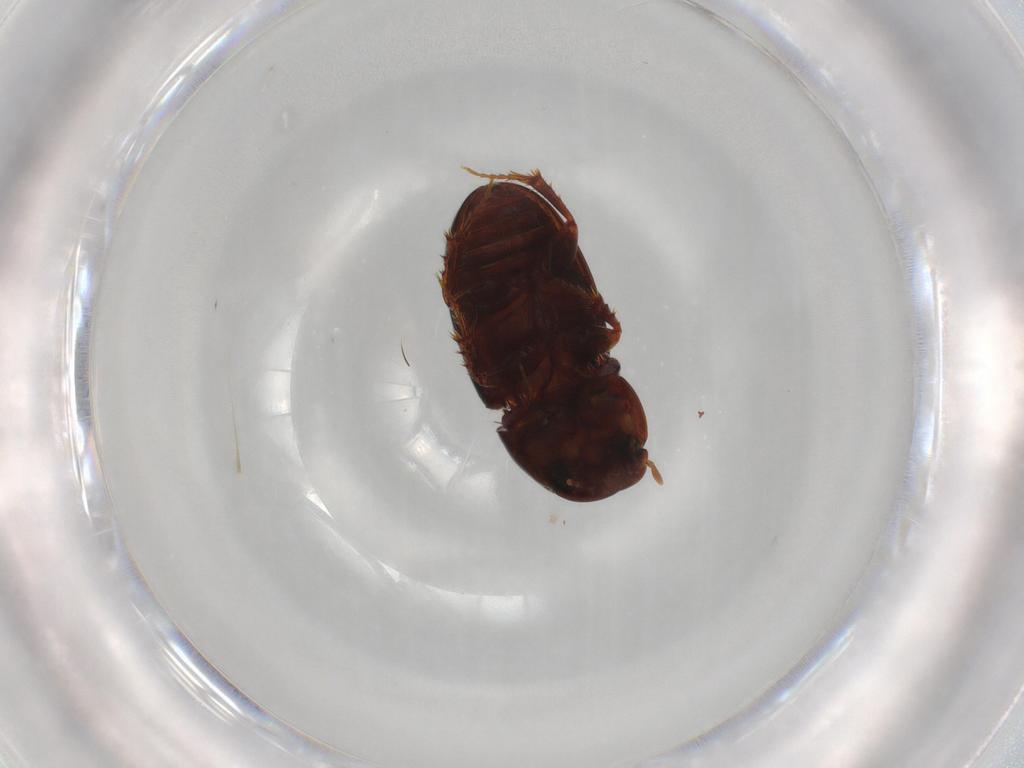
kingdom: Animalia
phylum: Arthropoda
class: Insecta
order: Coleoptera
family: Scarabaeidae
